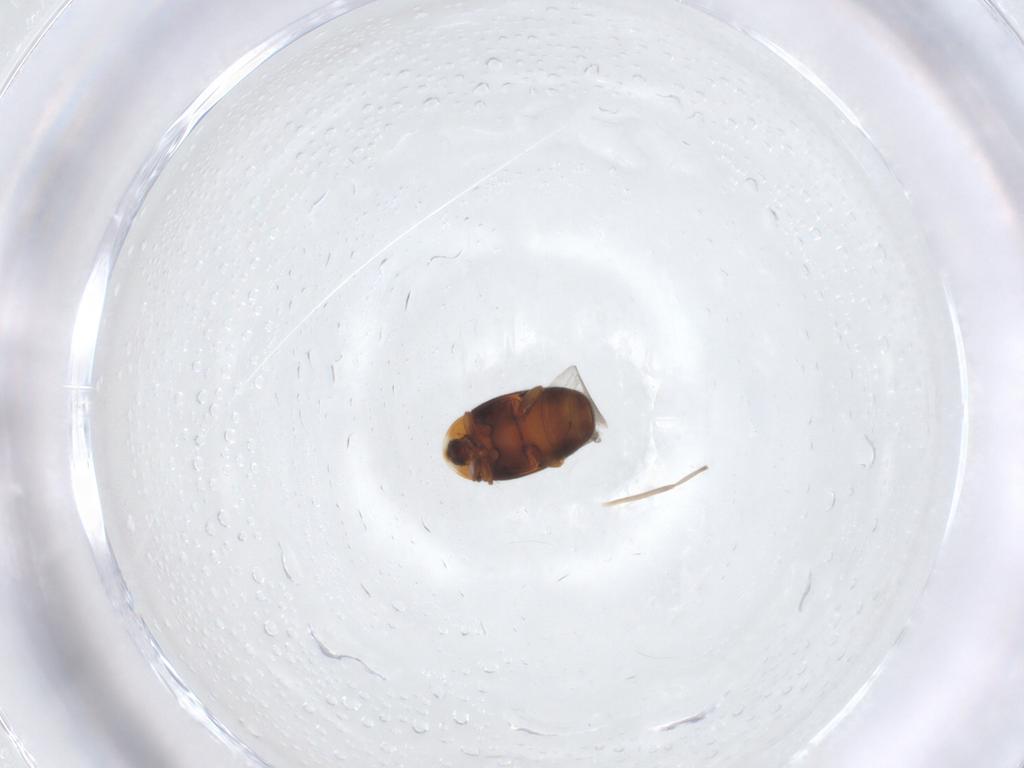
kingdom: Animalia
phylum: Arthropoda
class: Insecta
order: Coleoptera
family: Corylophidae
